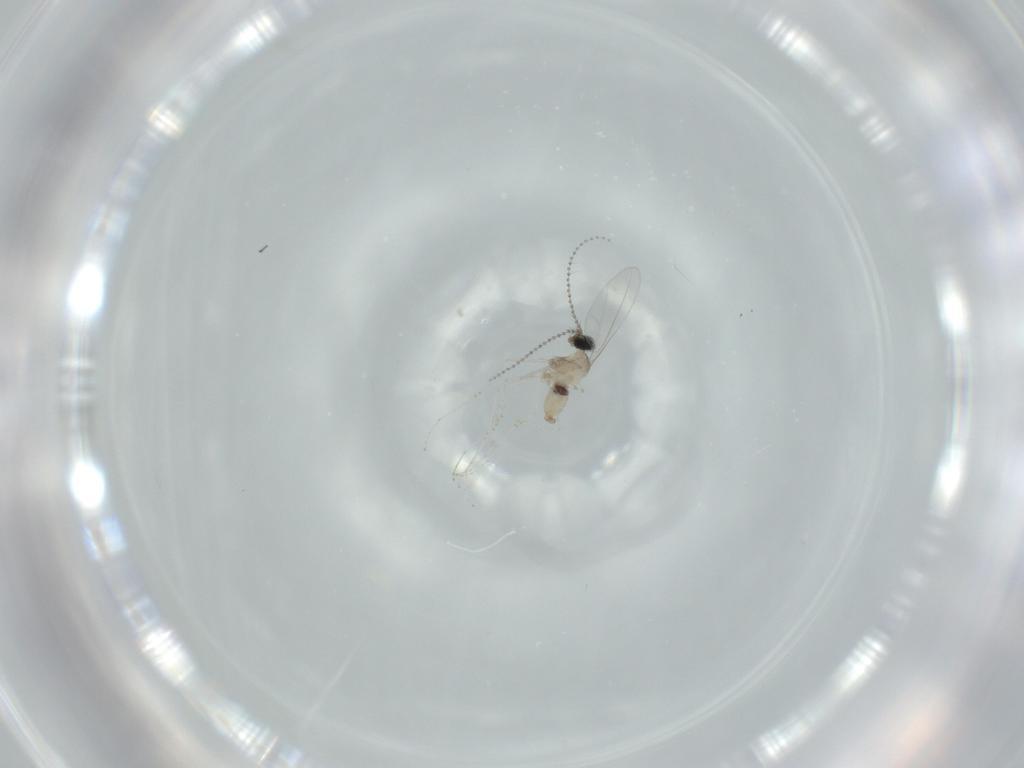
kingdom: Animalia
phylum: Arthropoda
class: Insecta
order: Diptera
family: Cecidomyiidae
